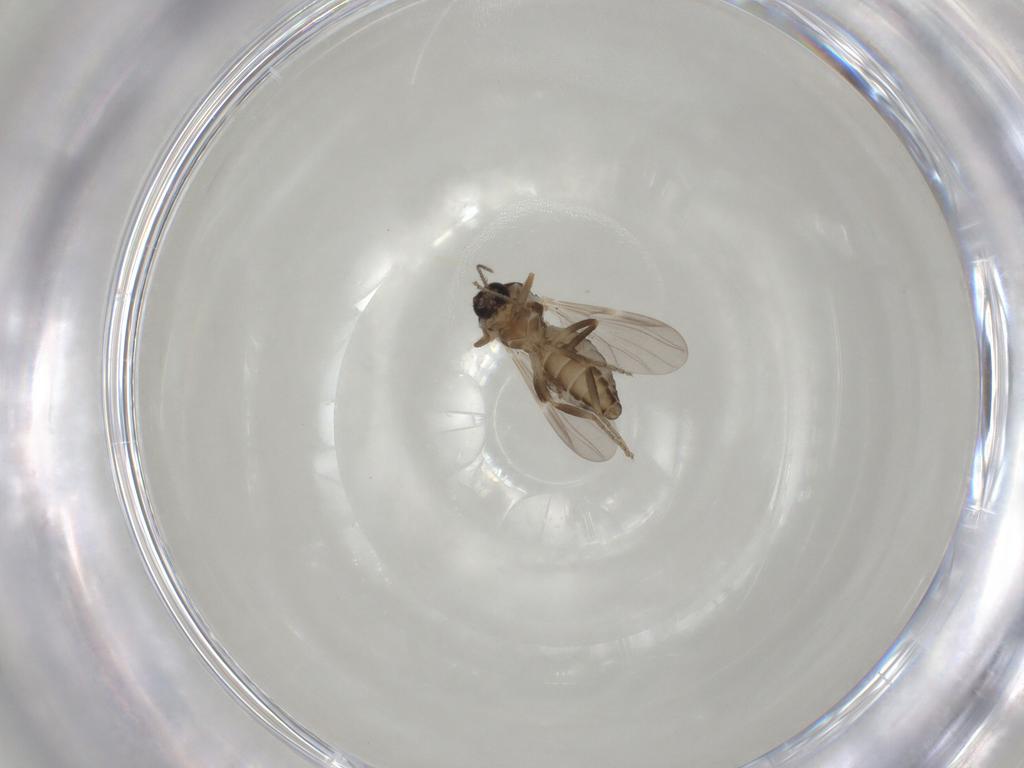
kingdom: Animalia
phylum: Arthropoda
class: Insecta
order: Diptera
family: Ceratopogonidae
